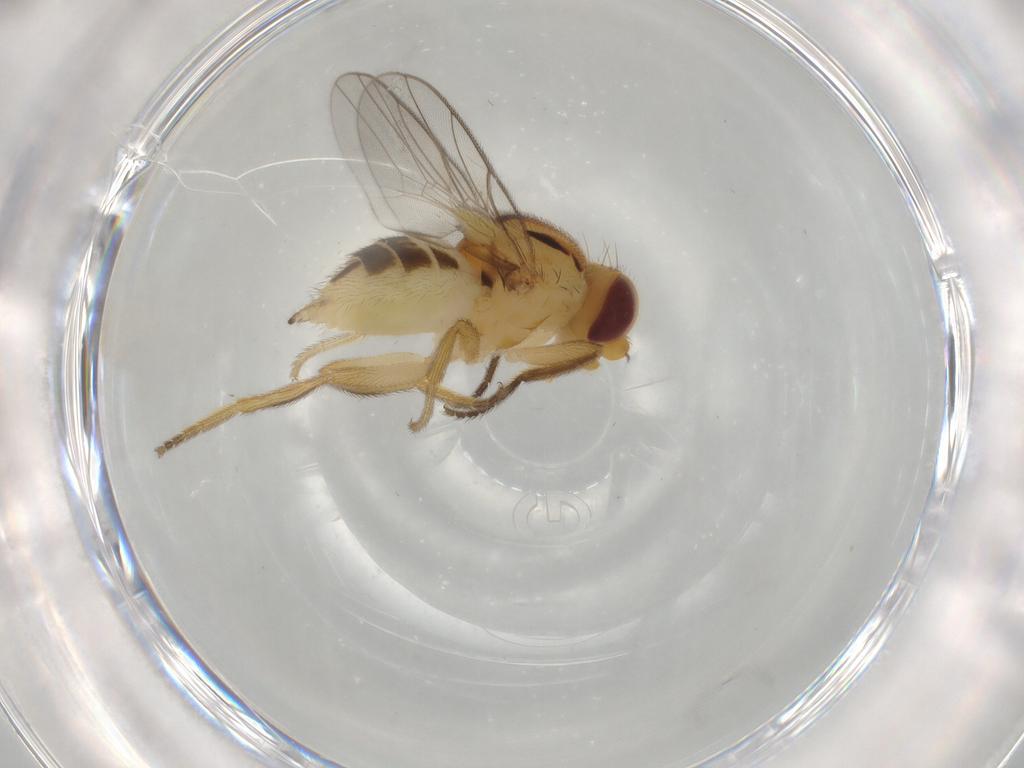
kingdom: Animalia
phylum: Arthropoda
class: Insecta
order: Diptera
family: Chloropidae
